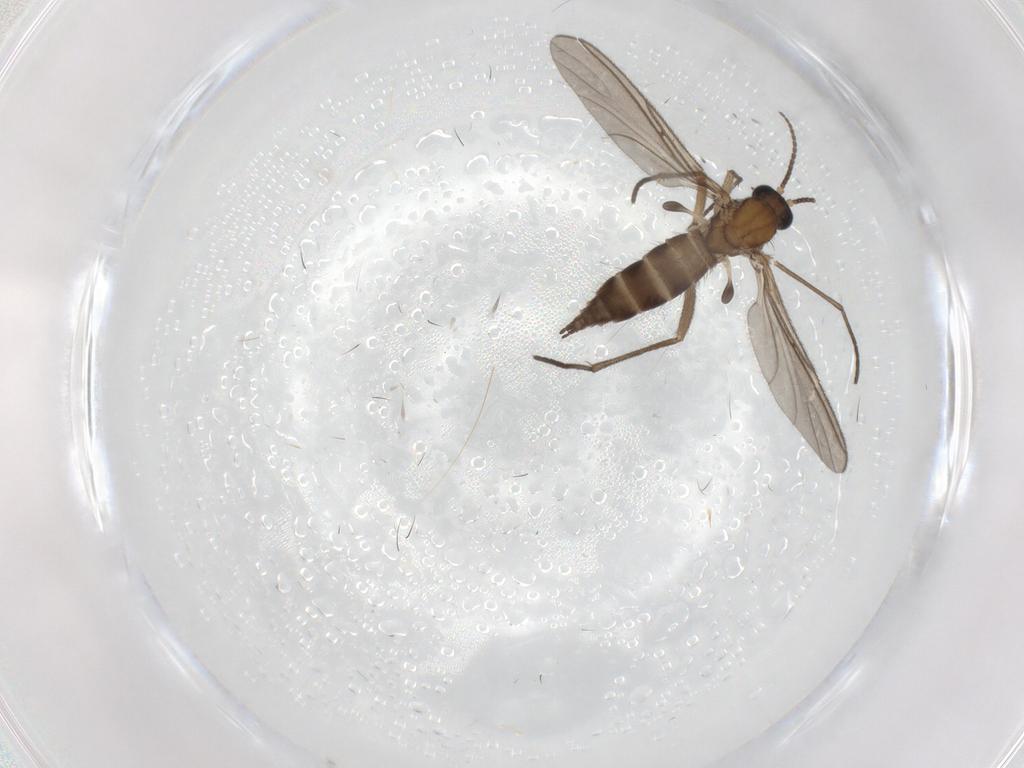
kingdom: Animalia
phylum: Arthropoda
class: Insecta
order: Diptera
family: Sciaridae
